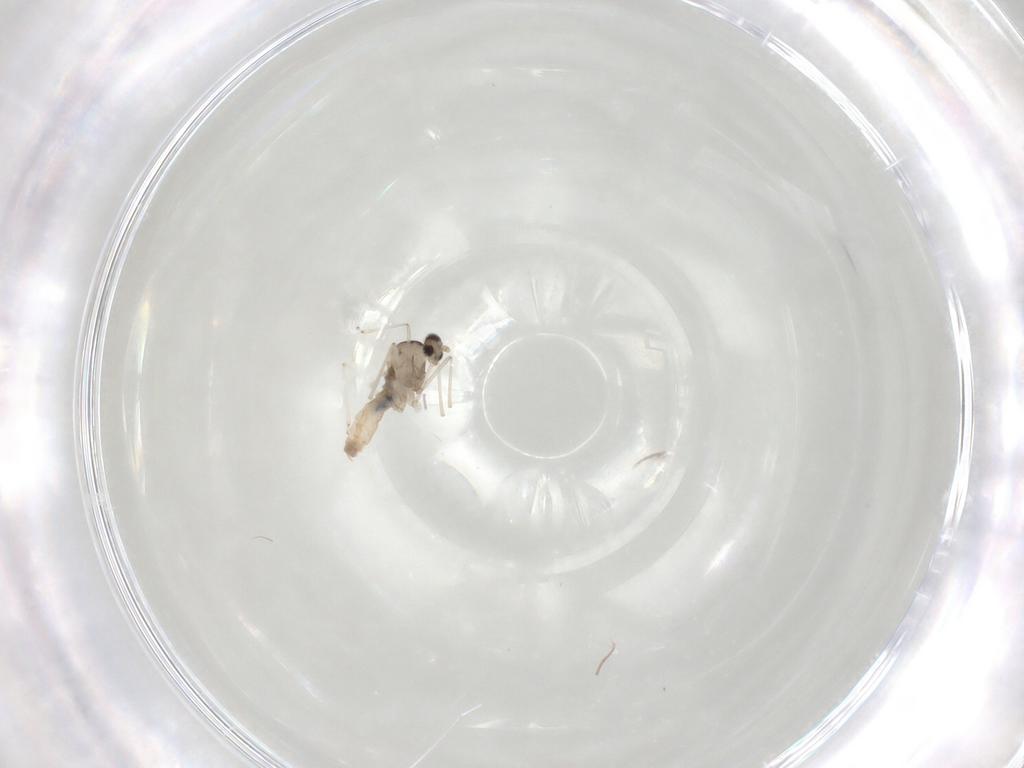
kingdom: Animalia
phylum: Arthropoda
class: Insecta
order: Diptera
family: Cecidomyiidae
